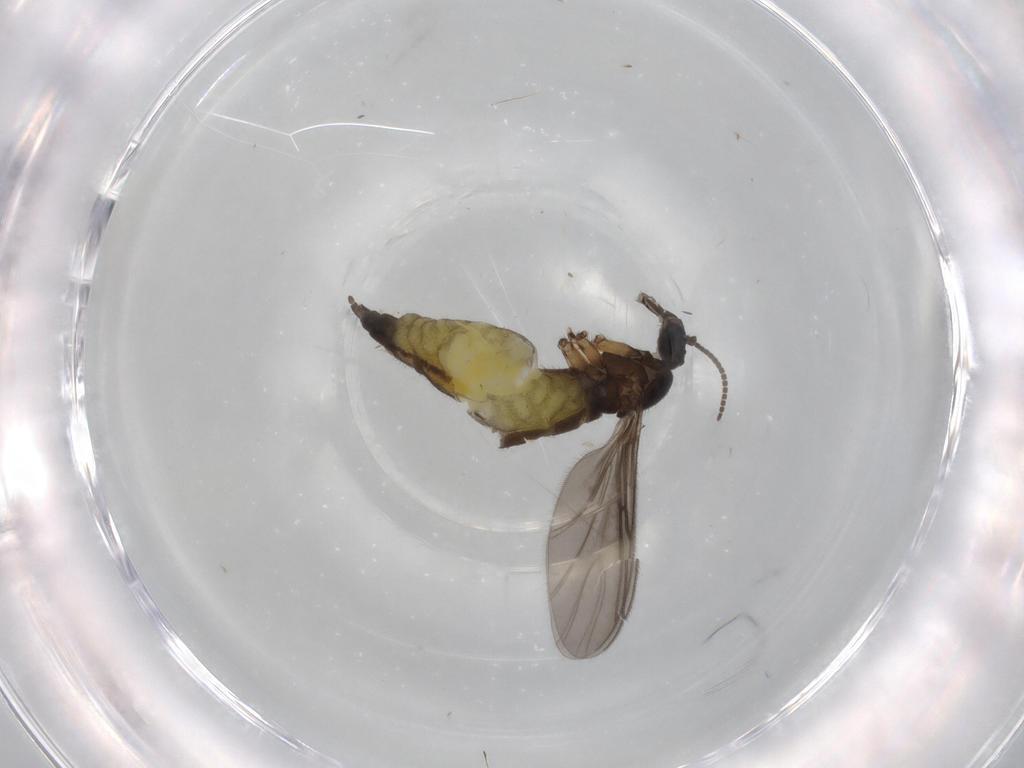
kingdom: Animalia
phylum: Arthropoda
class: Insecta
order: Diptera
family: Sciaridae
